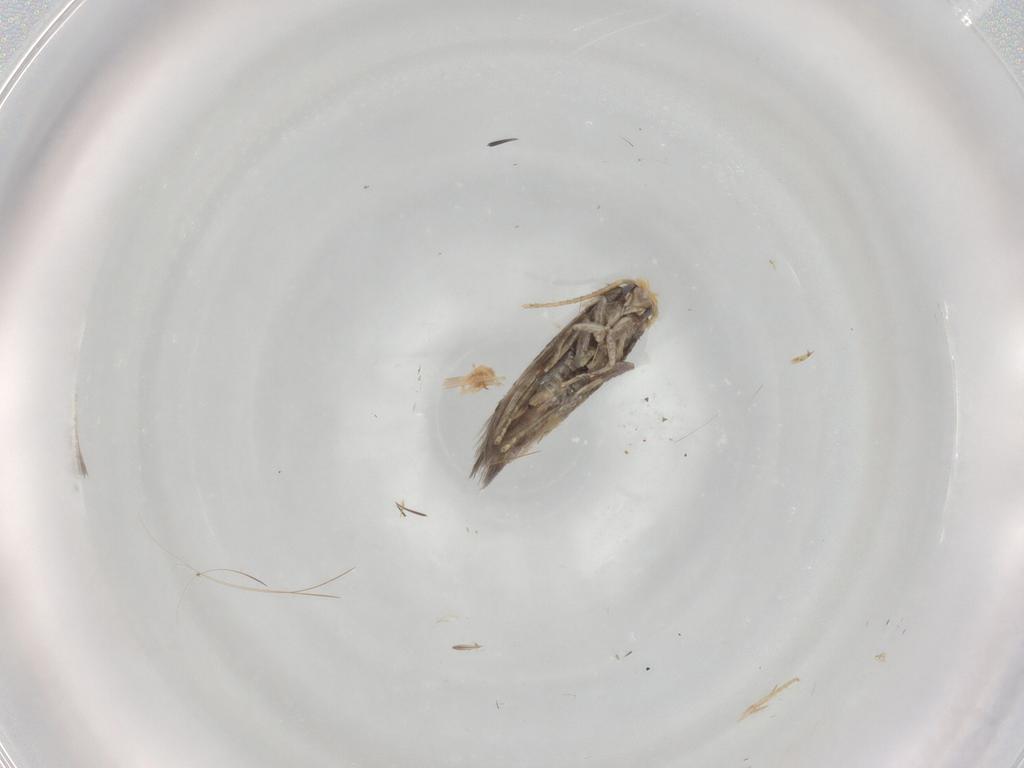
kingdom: Animalia
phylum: Arthropoda
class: Insecta
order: Lepidoptera
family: Nepticulidae
